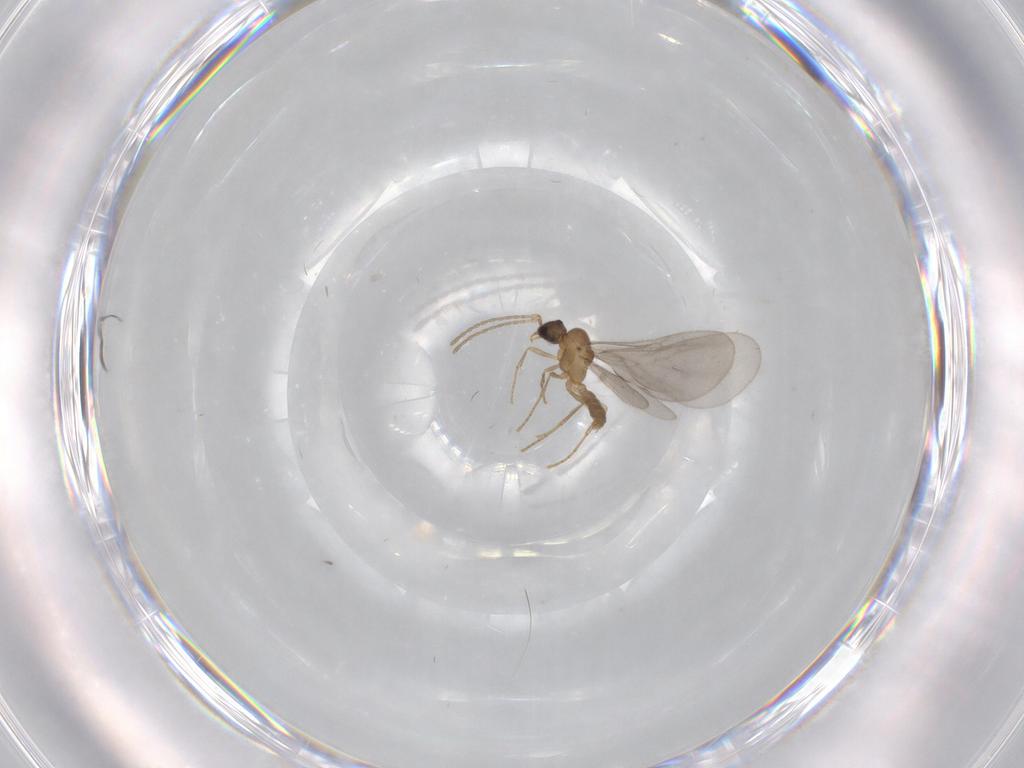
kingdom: Animalia
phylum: Arthropoda
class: Insecta
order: Hymenoptera
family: Formicidae
